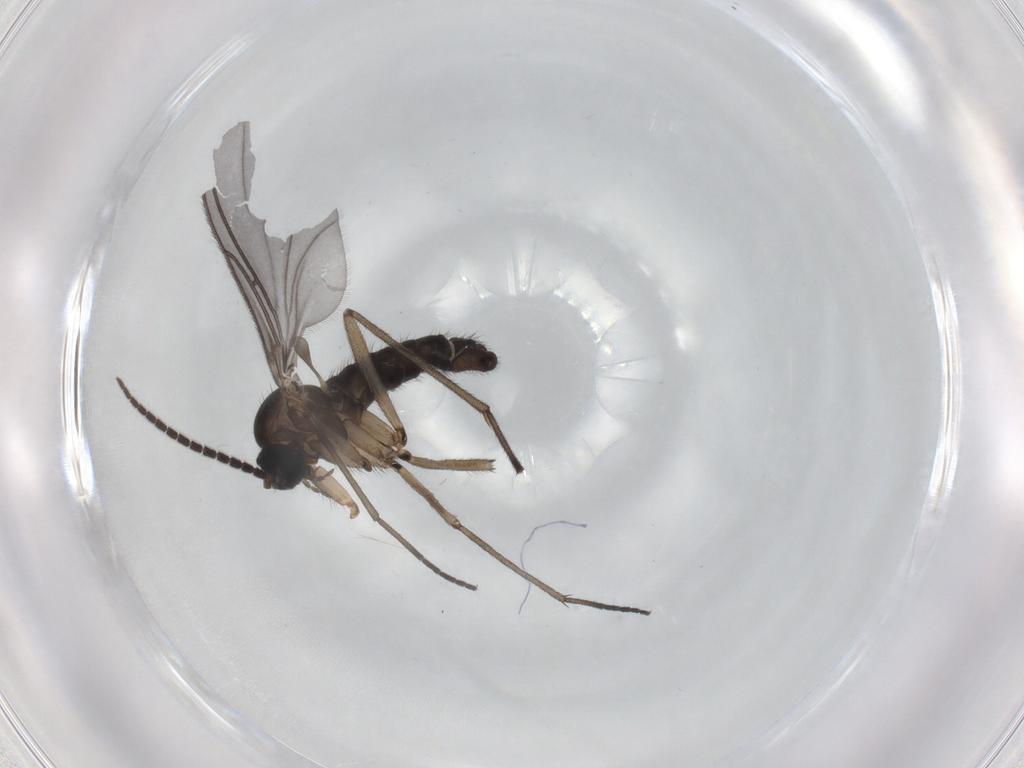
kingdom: Animalia
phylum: Arthropoda
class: Insecta
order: Diptera
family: Sciaridae
